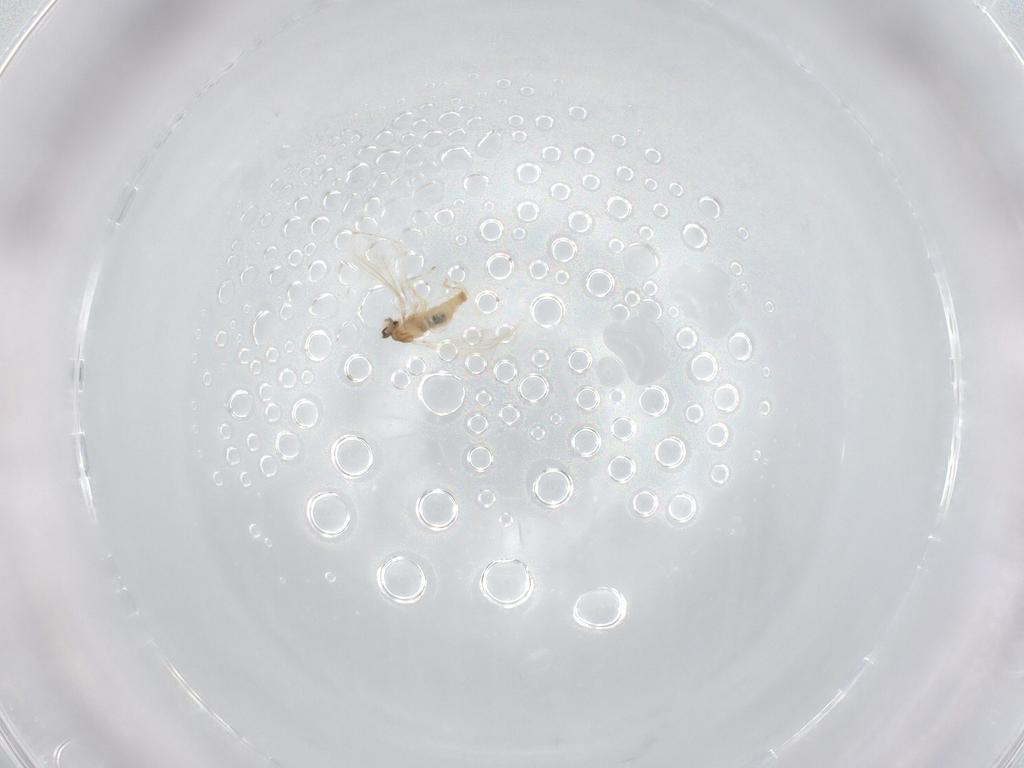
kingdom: Animalia
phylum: Arthropoda
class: Insecta
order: Diptera
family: Cecidomyiidae
